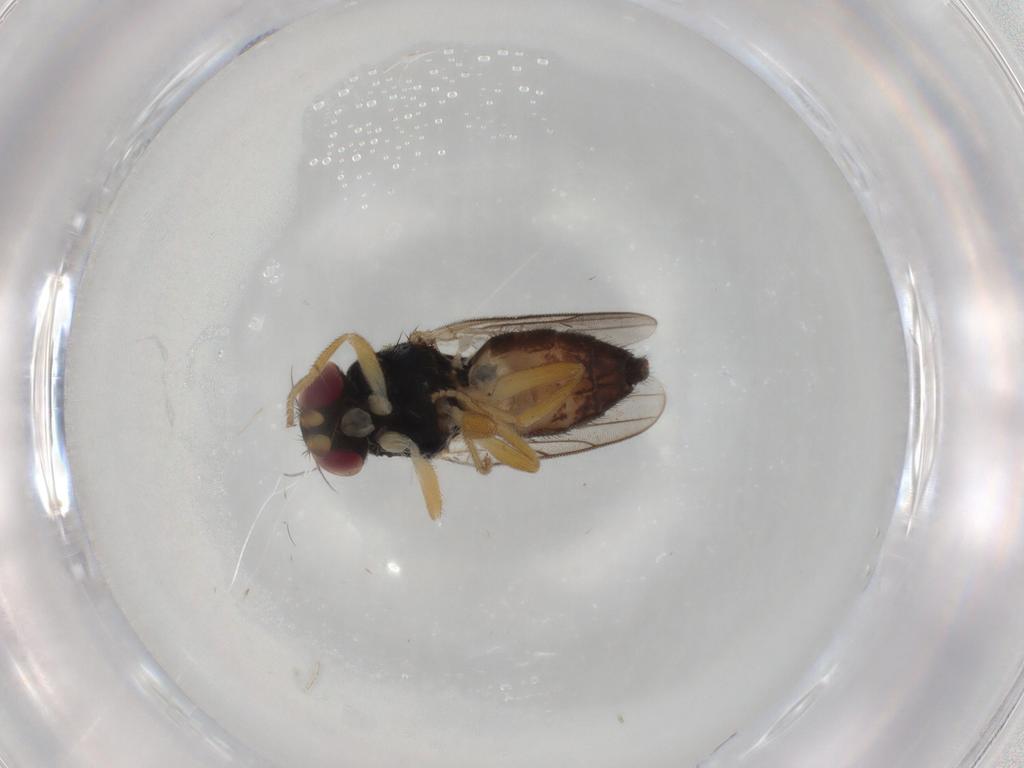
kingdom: Animalia
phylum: Arthropoda
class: Insecta
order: Diptera
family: Chloropidae
